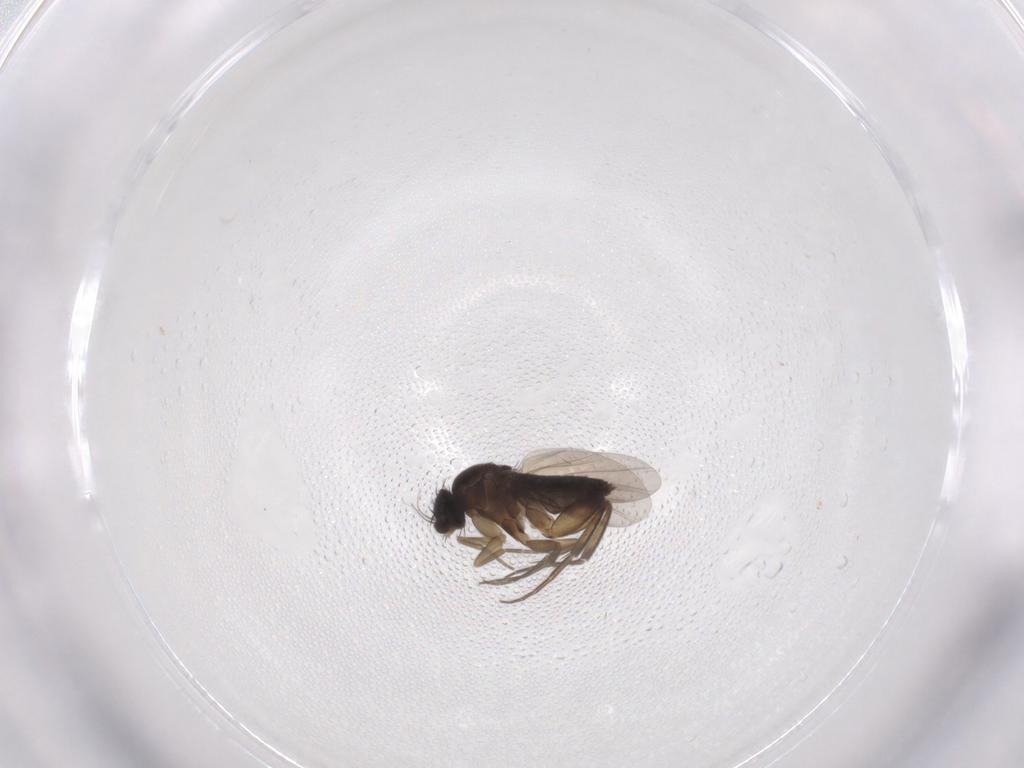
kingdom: Animalia
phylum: Arthropoda
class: Insecta
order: Diptera
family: Phoridae
